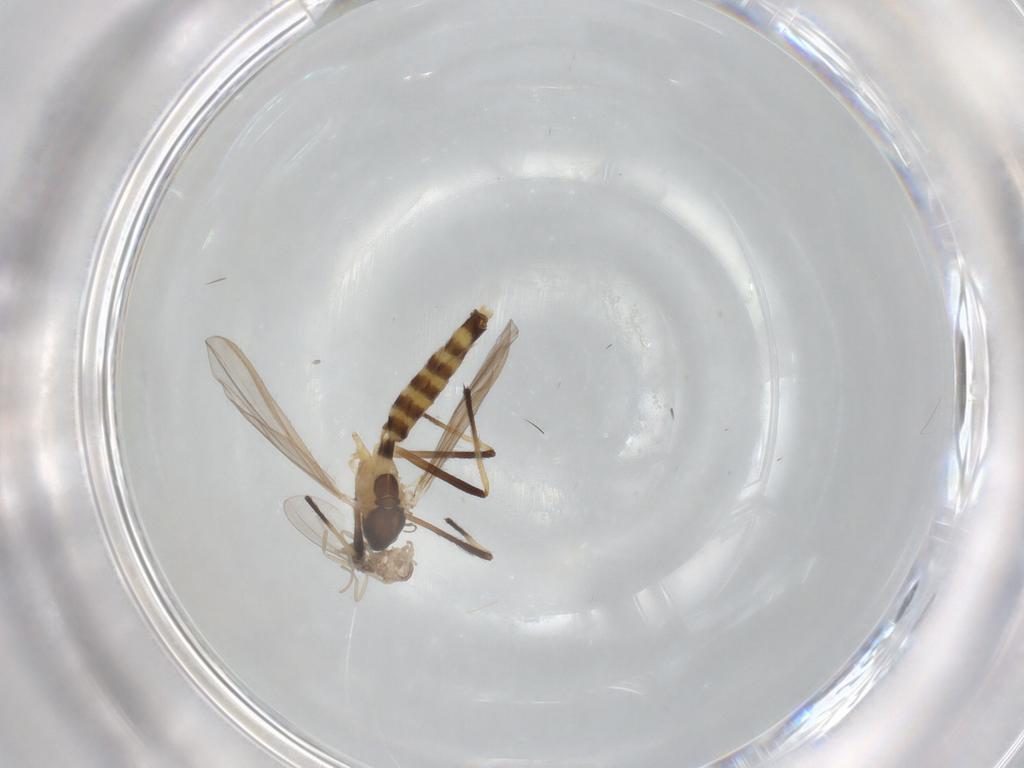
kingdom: Animalia
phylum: Arthropoda
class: Insecta
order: Diptera
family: Chironomidae
